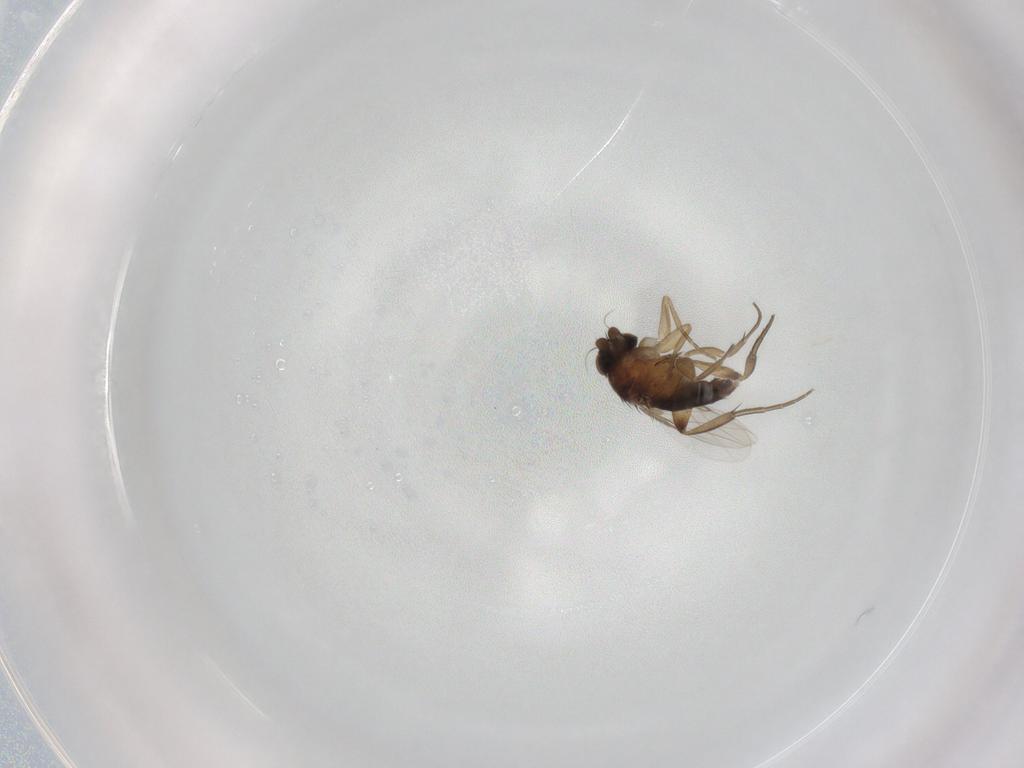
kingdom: Animalia
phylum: Arthropoda
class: Insecta
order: Diptera
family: Phoridae
